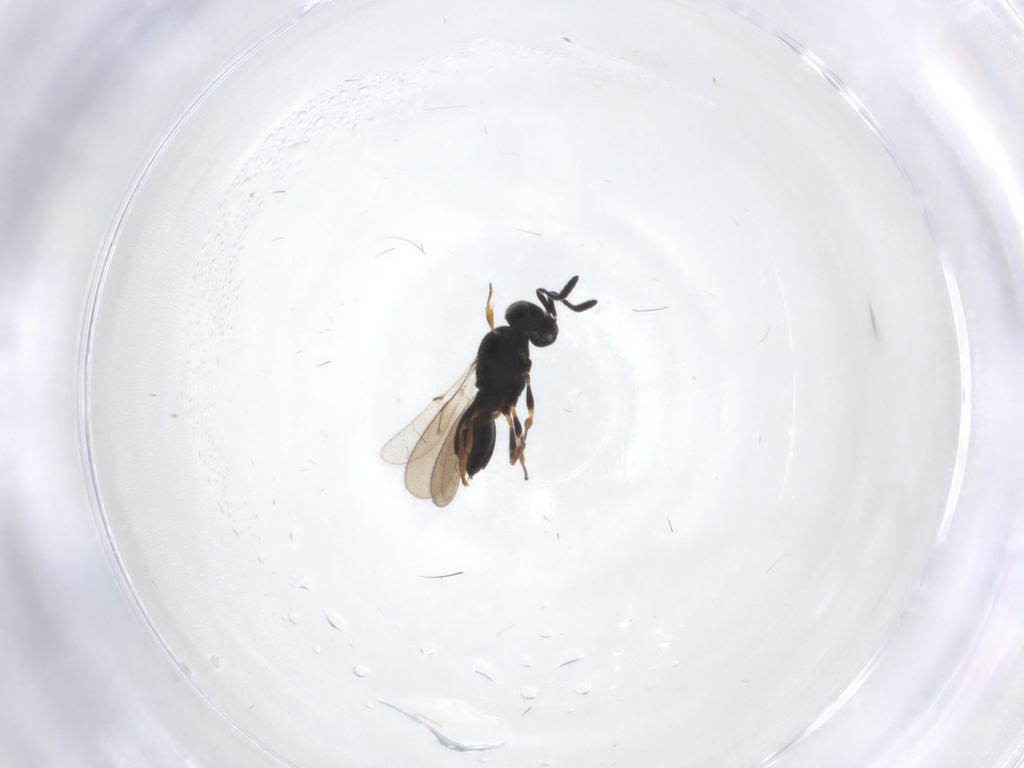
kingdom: Animalia
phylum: Arthropoda
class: Insecta
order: Hymenoptera
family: Scelionidae
